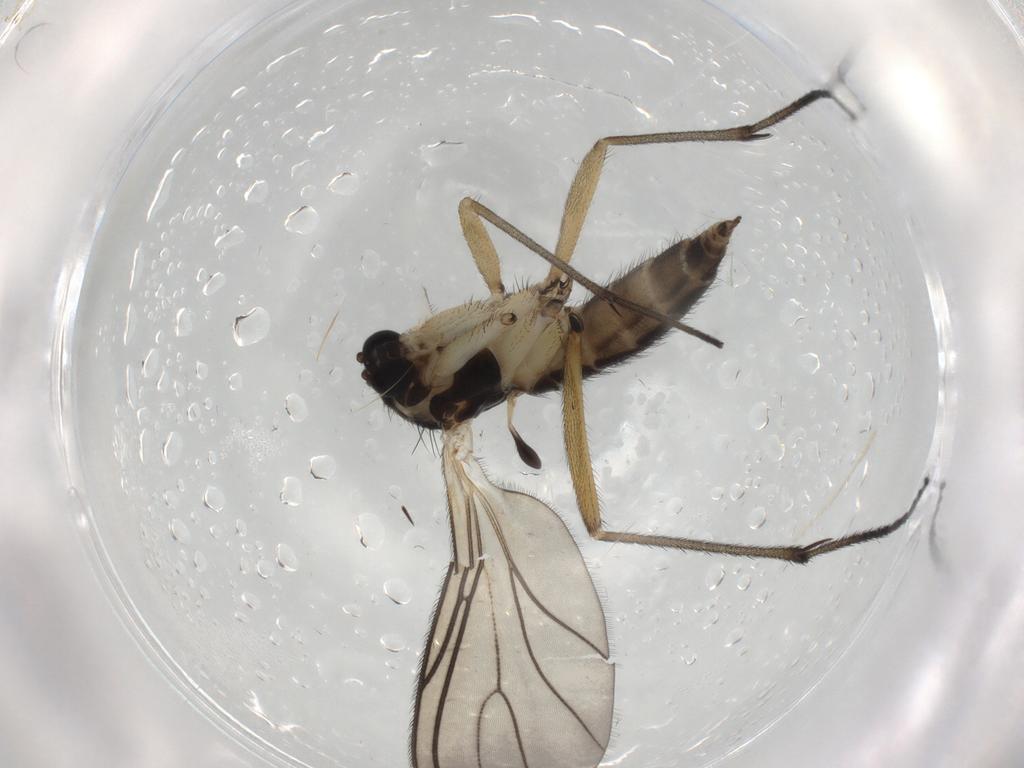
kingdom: Animalia
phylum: Arthropoda
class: Insecta
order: Diptera
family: Sciaridae
